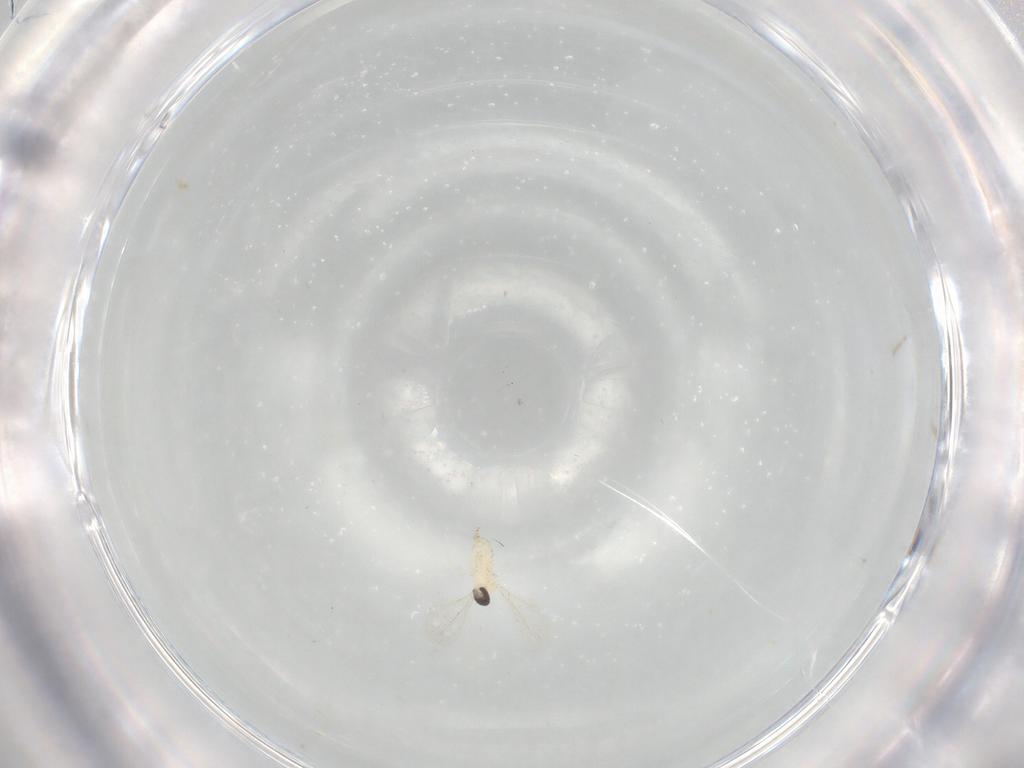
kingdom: Animalia
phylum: Arthropoda
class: Insecta
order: Diptera
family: Cecidomyiidae
